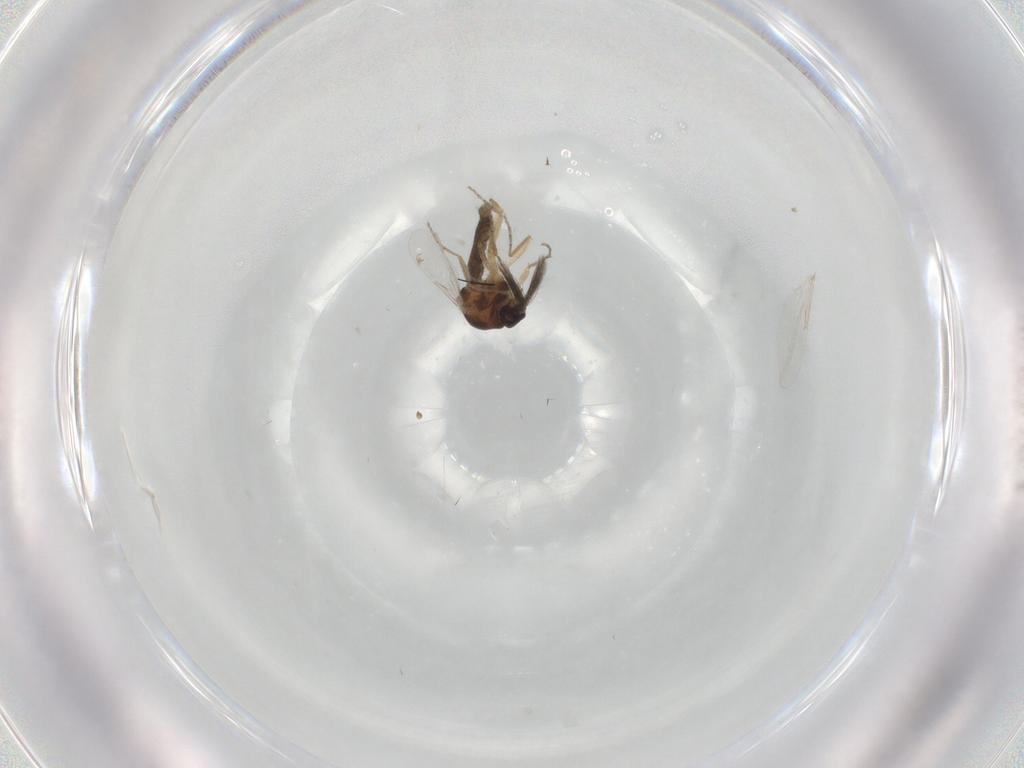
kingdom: Animalia
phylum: Arthropoda
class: Insecta
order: Diptera
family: Ceratopogonidae
